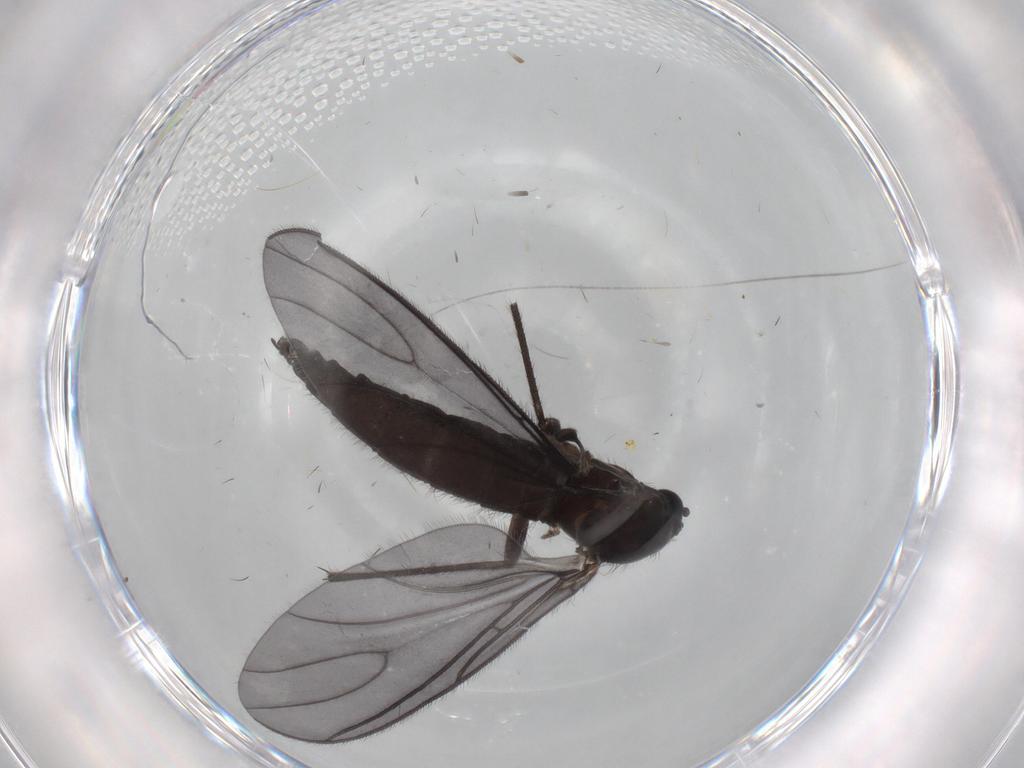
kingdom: Animalia
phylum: Arthropoda
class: Insecta
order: Diptera
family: Sciaridae
